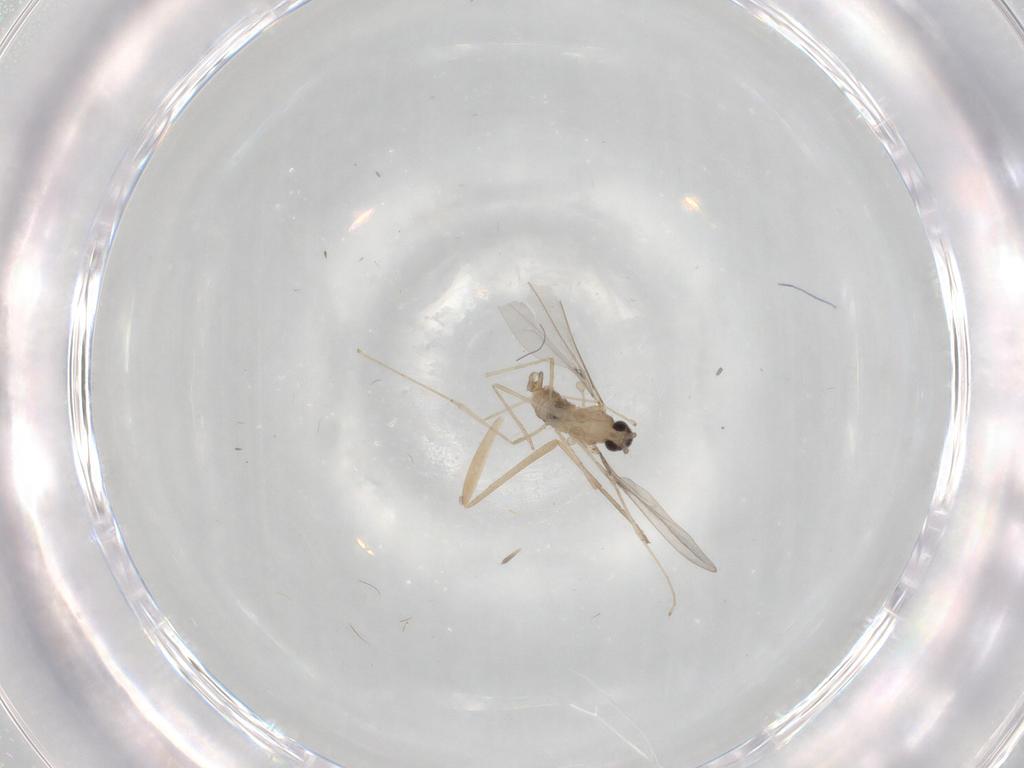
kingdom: Animalia
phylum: Arthropoda
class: Insecta
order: Diptera
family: Cecidomyiidae
